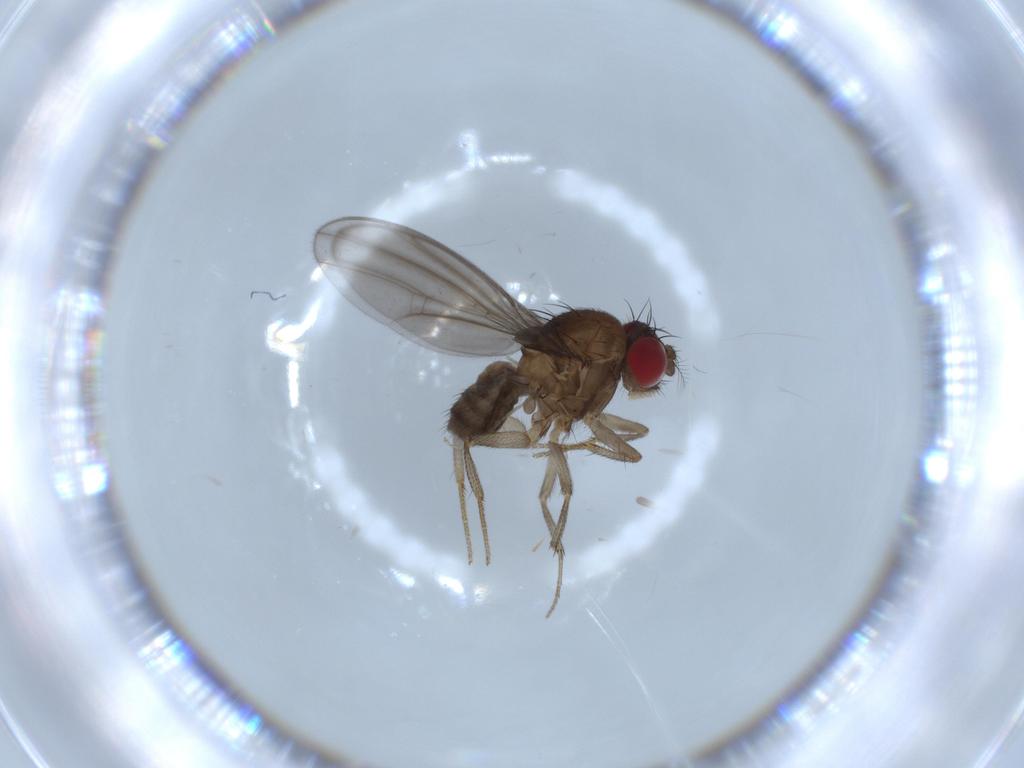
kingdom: Animalia
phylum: Arthropoda
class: Insecta
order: Diptera
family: Drosophilidae
